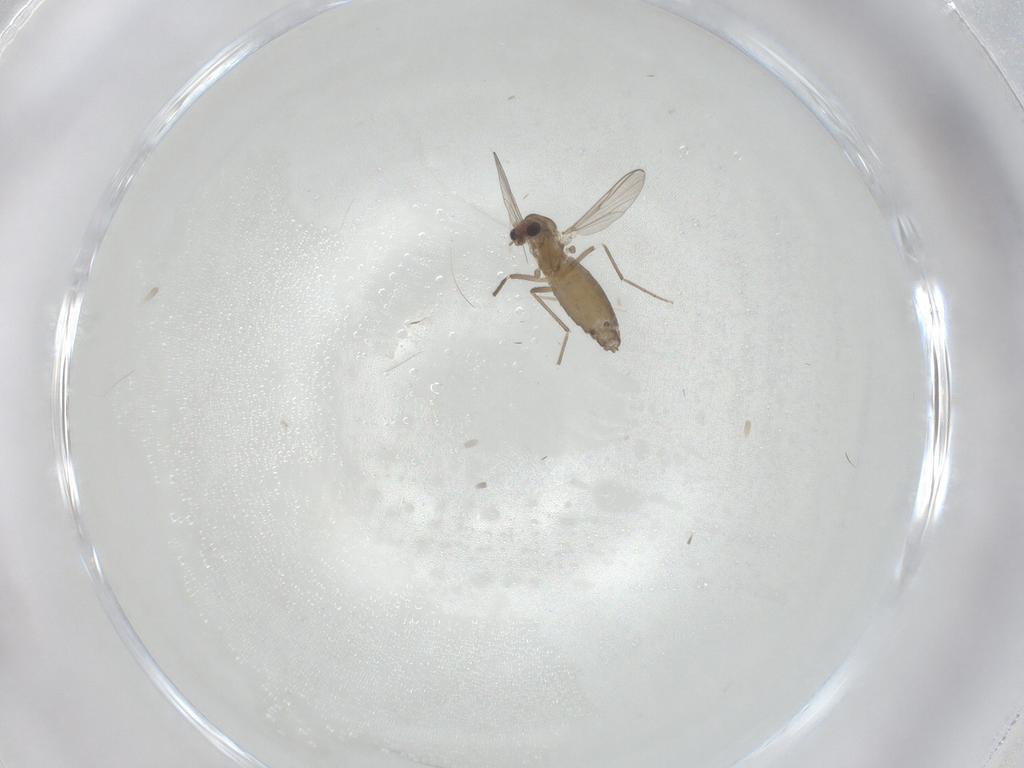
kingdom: Animalia
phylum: Arthropoda
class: Insecta
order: Diptera
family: Chironomidae
